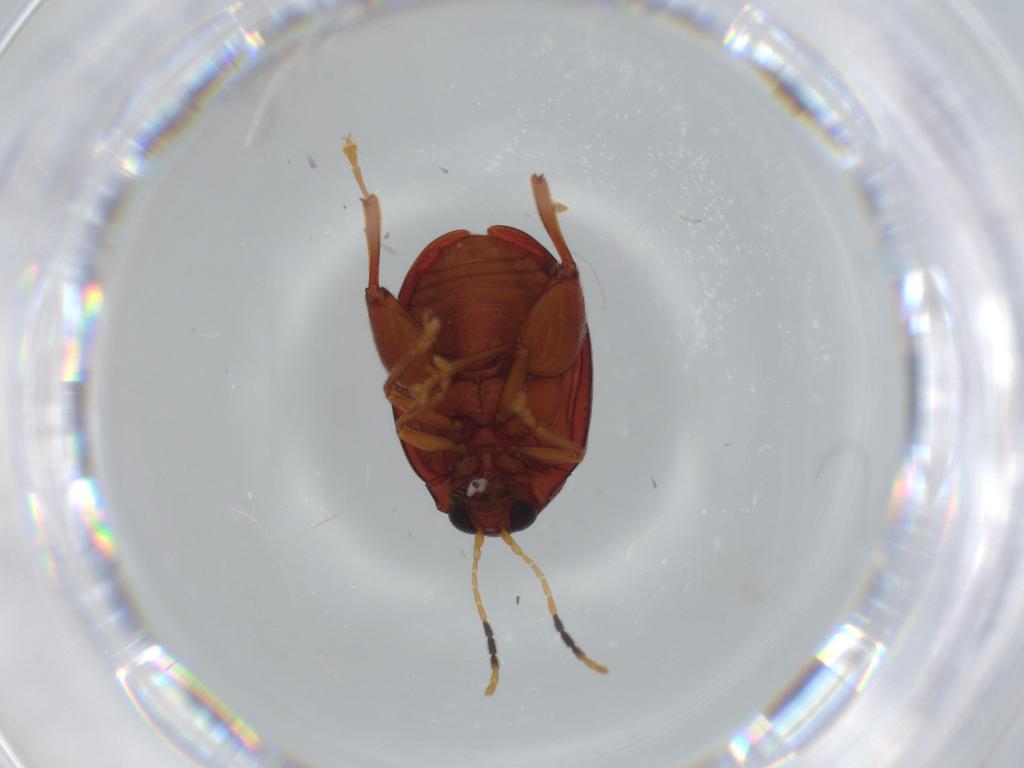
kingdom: Animalia
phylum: Arthropoda
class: Insecta
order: Coleoptera
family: Chrysomelidae
